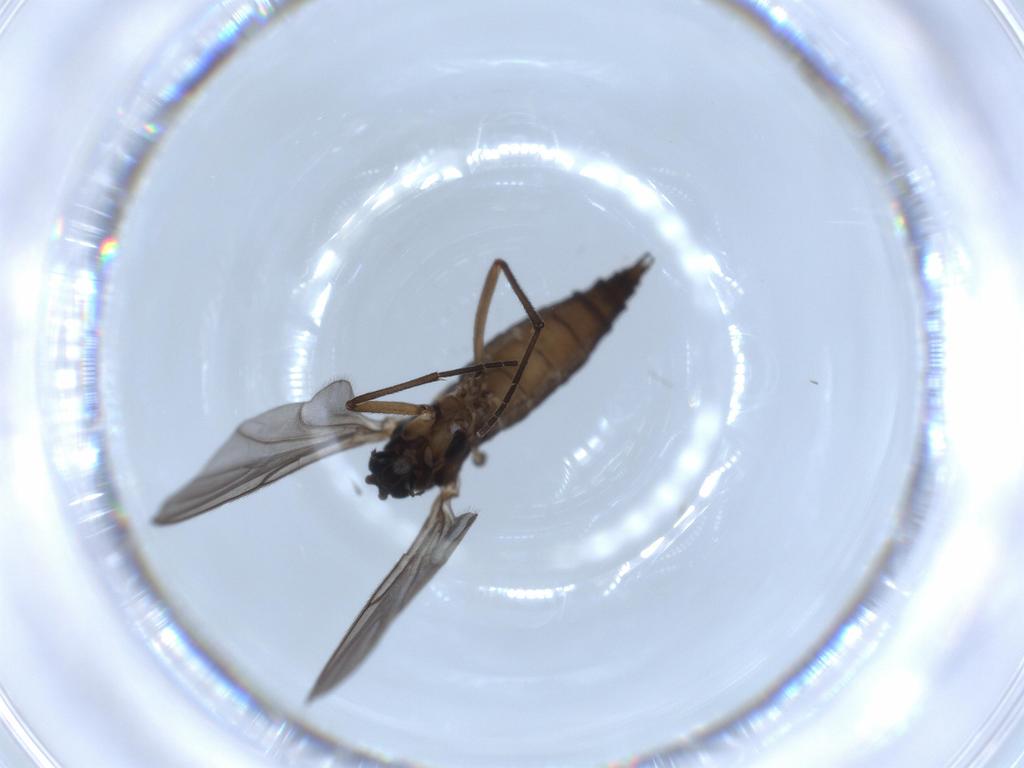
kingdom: Animalia
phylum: Arthropoda
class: Insecta
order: Diptera
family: Sciaridae
